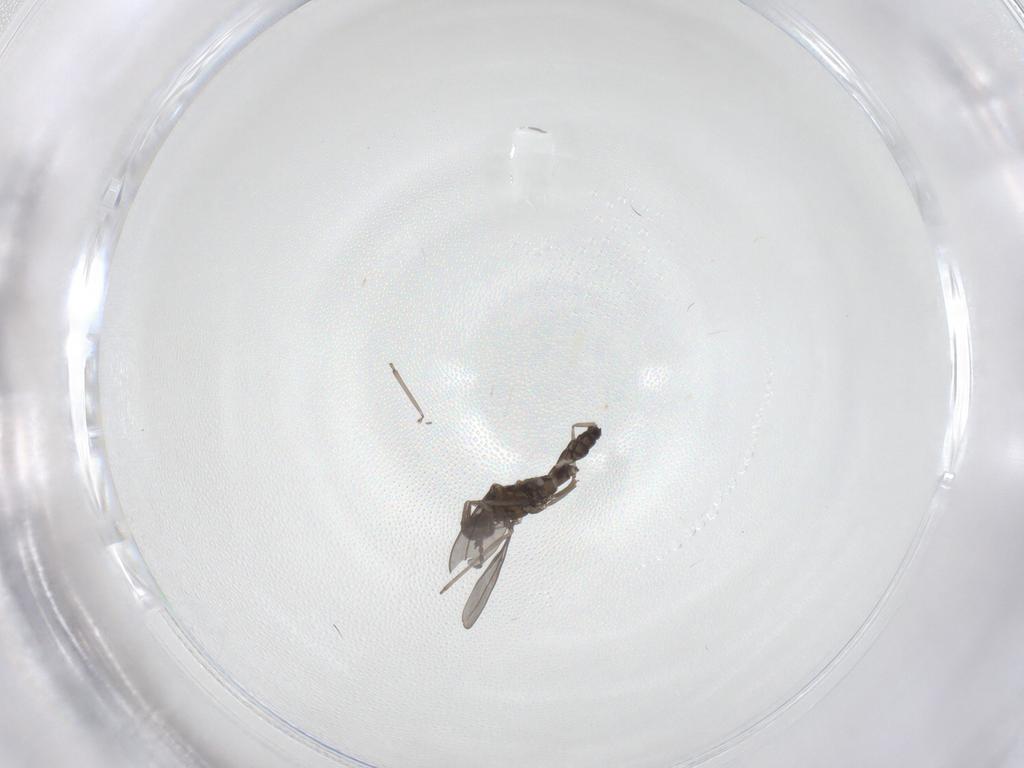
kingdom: Animalia
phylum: Arthropoda
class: Insecta
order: Diptera
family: Cecidomyiidae
